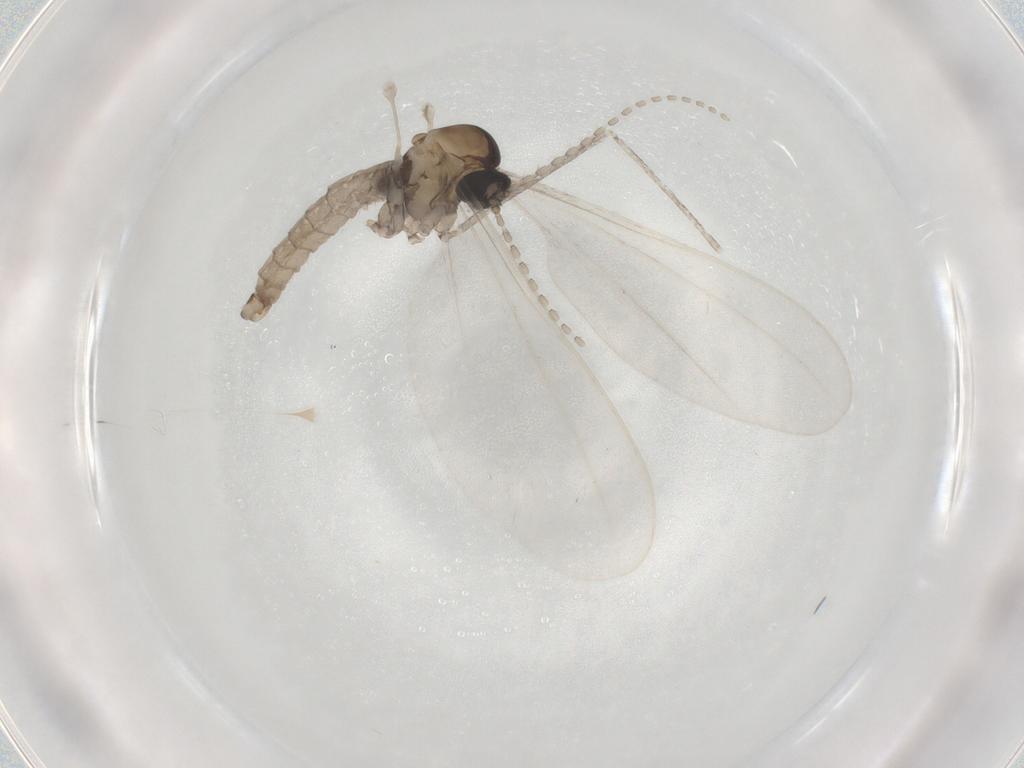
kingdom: Animalia
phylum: Arthropoda
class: Insecta
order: Diptera
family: Cecidomyiidae
